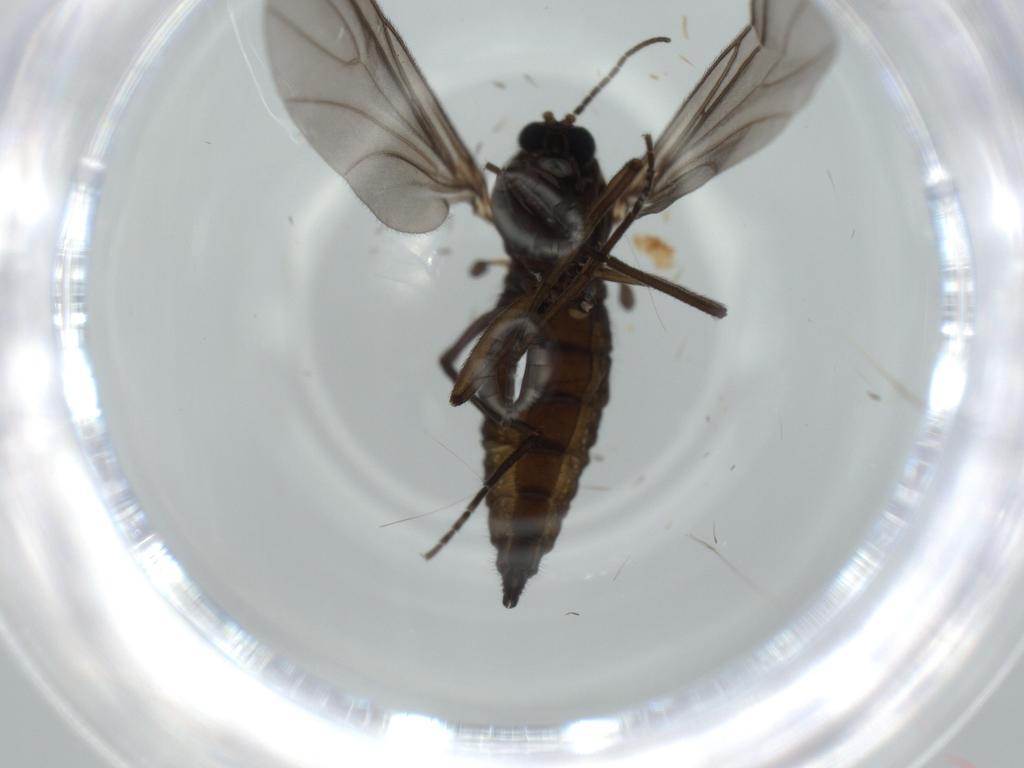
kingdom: Animalia
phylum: Arthropoda
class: Insecta
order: Diptera
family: Sciaridae
